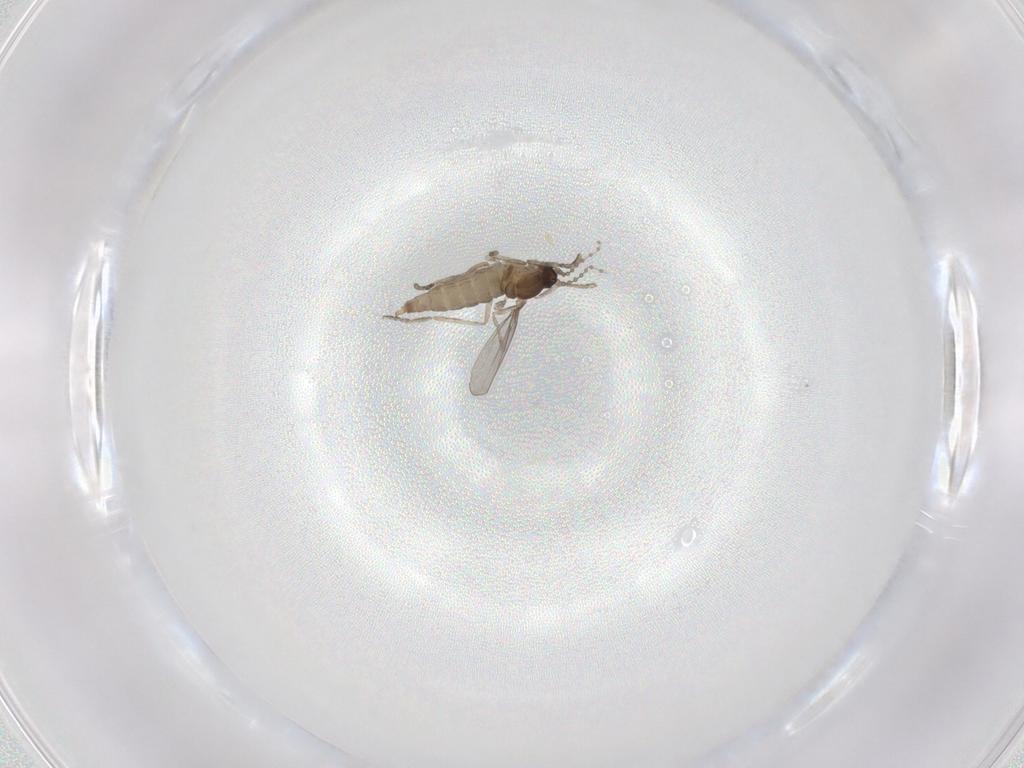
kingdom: Animalia
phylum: Arthropoda
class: Insecta
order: Diptera
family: Cecidomyiidae
